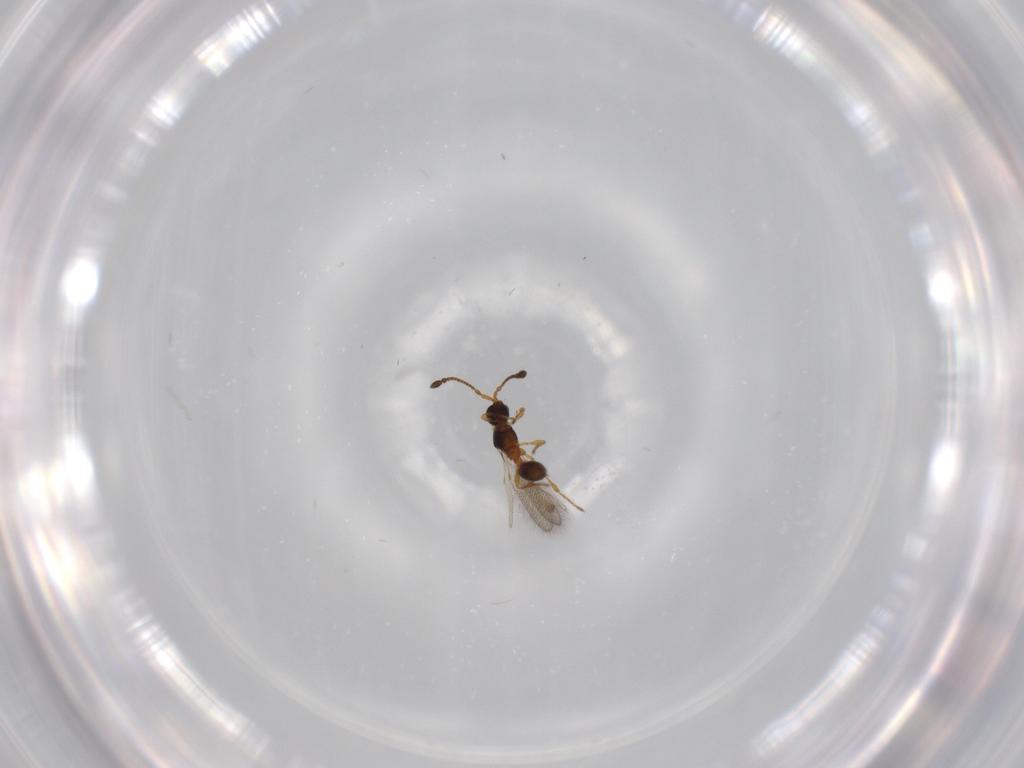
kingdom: Animalia
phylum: Arthropoda
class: Insecta
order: Hymenoptera
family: Diapriidae
